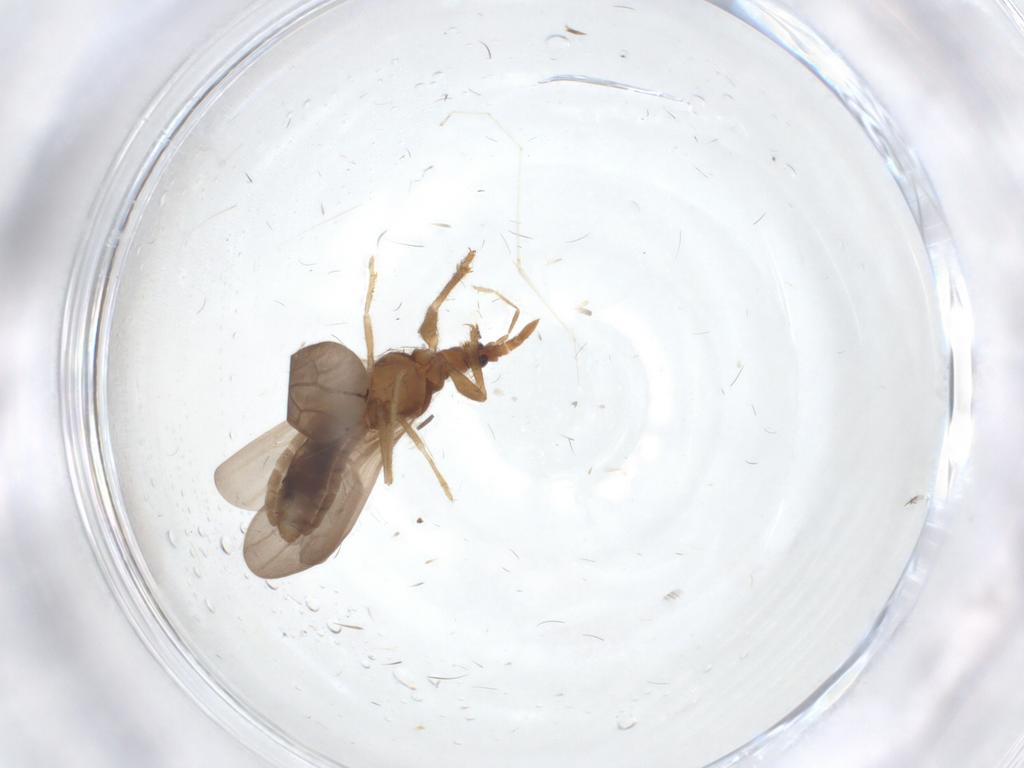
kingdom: Animalia
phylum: Arthropoda
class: Insecta
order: Hemiptera
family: Enicocephalidae
